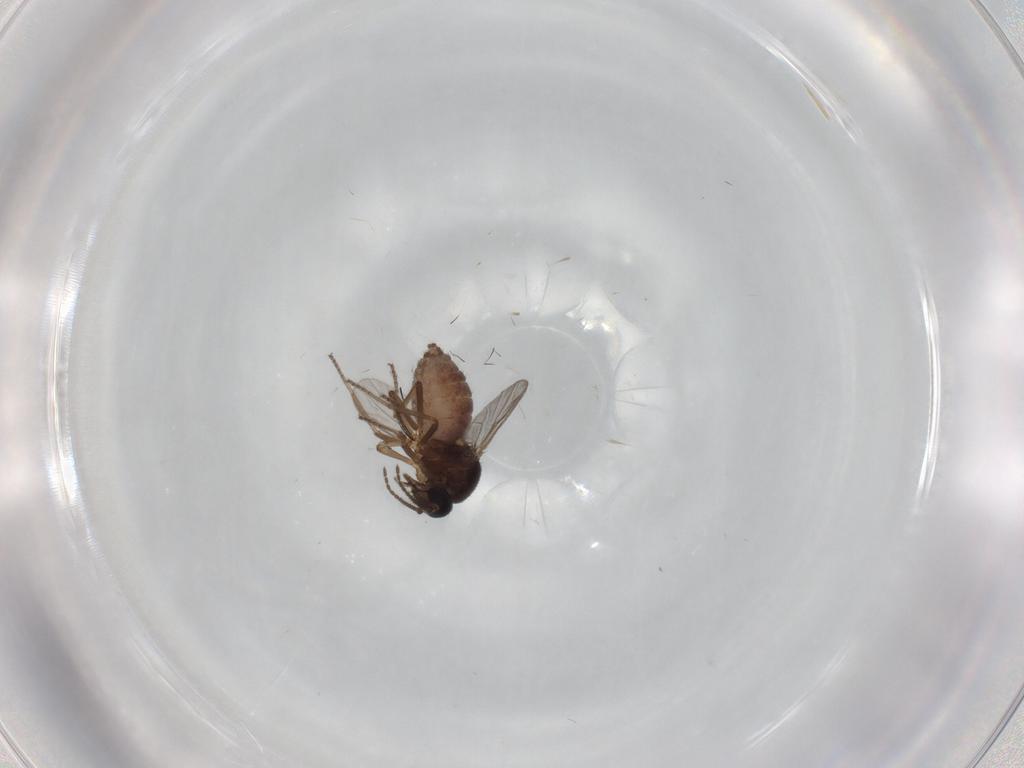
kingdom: Animalia
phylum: Arthropoda
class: Insecta
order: Diptera
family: Ceratopogonidae
